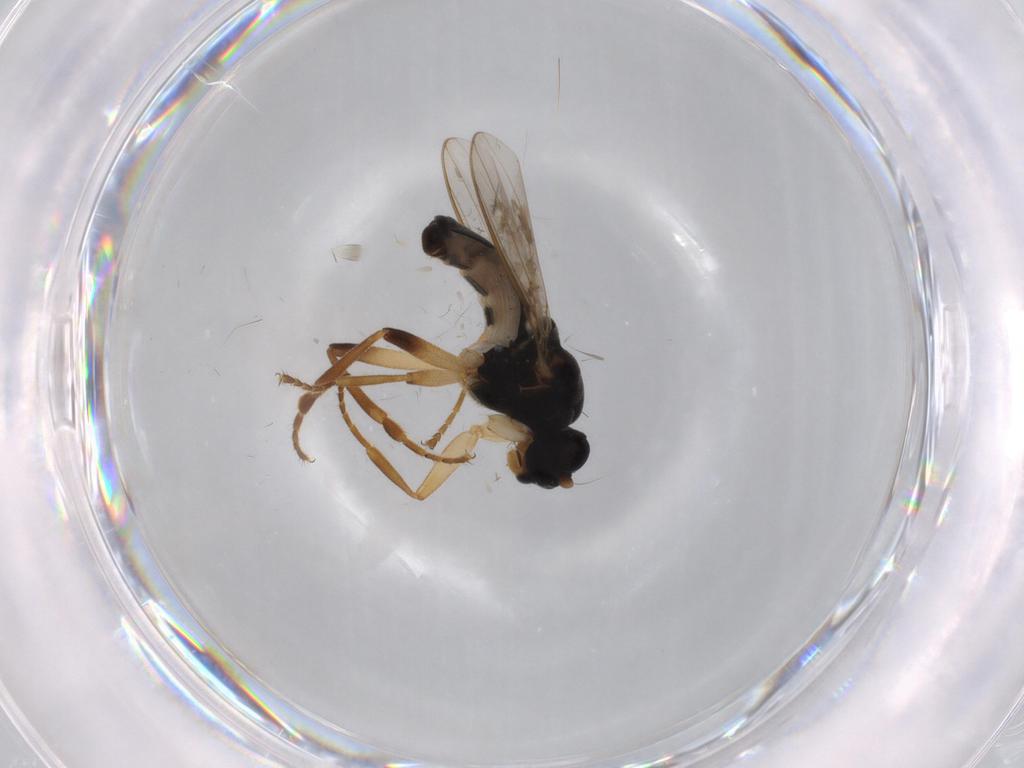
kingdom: Animalia
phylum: Arthropoda
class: Insecta
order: Diptera
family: Sphaeroceridae
